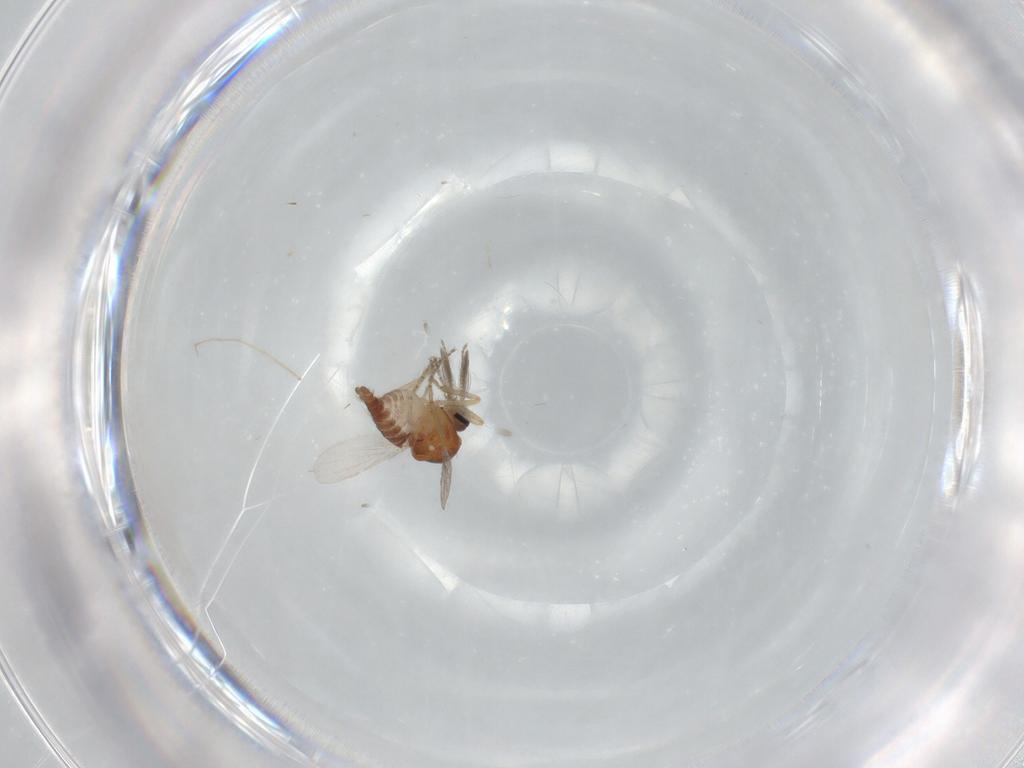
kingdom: Animalia
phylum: Arthropoda
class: Insecta
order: Diptera
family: Ceratopogonidae
